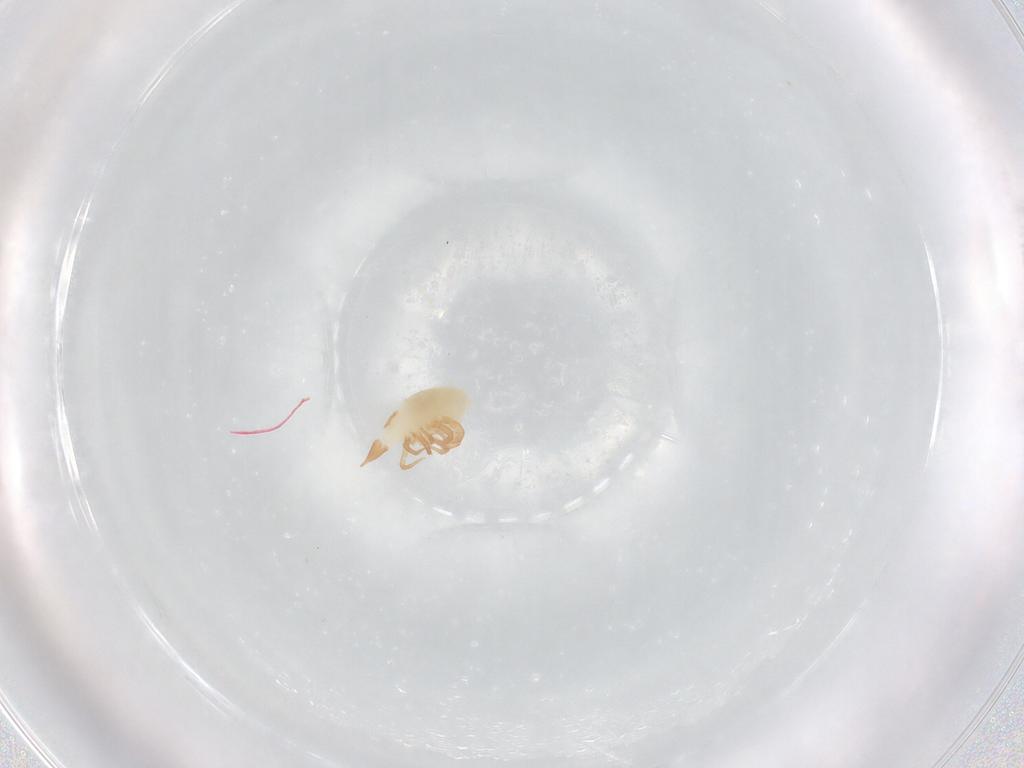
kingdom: Animalia
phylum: Arthropoda
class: Arachnida
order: Trombidiformes
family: Bdellidae
